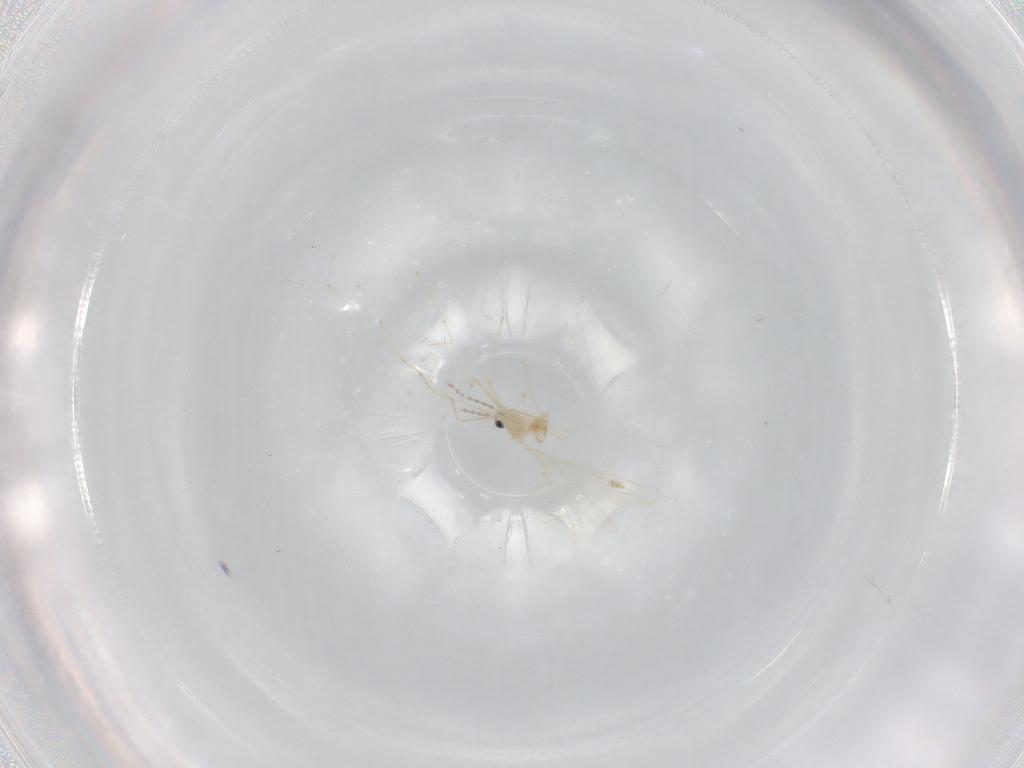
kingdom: Animalia
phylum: Arthropoda
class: Insecta
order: Diptera
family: Cecidomyiidae
